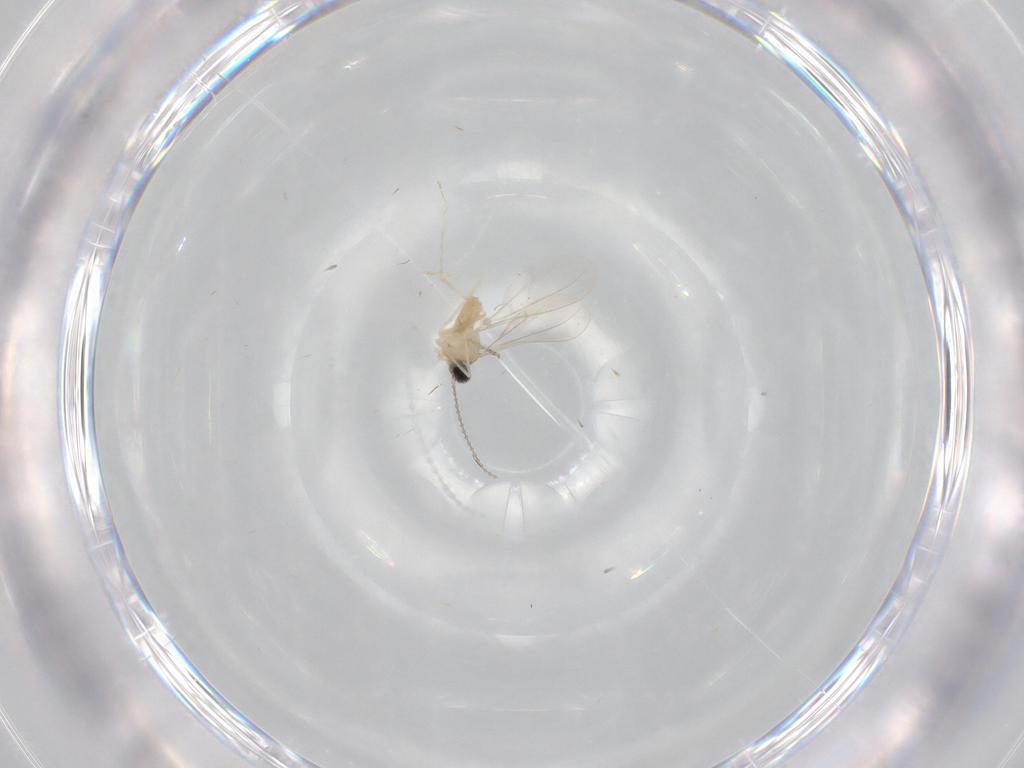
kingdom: Animalia
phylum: Arthropoda
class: Insecta
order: Diptera
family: Cecidomyiidae
